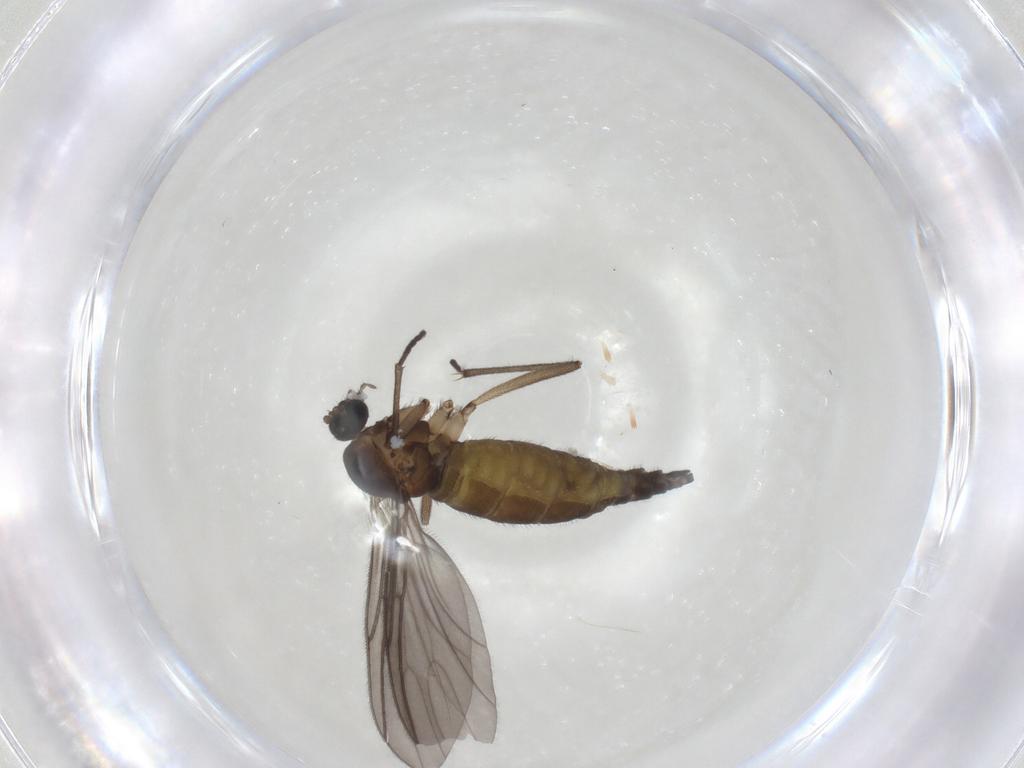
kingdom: Animalia
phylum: Arthropoda
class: Insecta
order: Diptera
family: Sciaridae
